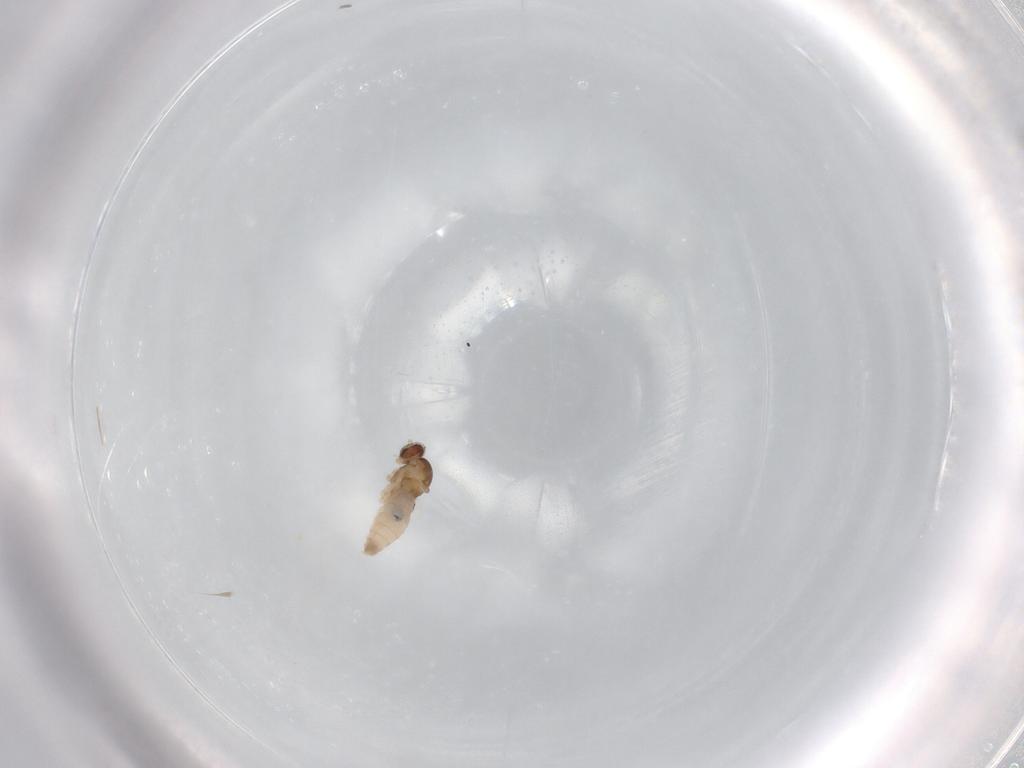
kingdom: Animalia
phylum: Arthropoda
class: Insecta
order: Diptera
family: Cecidomyiidae
